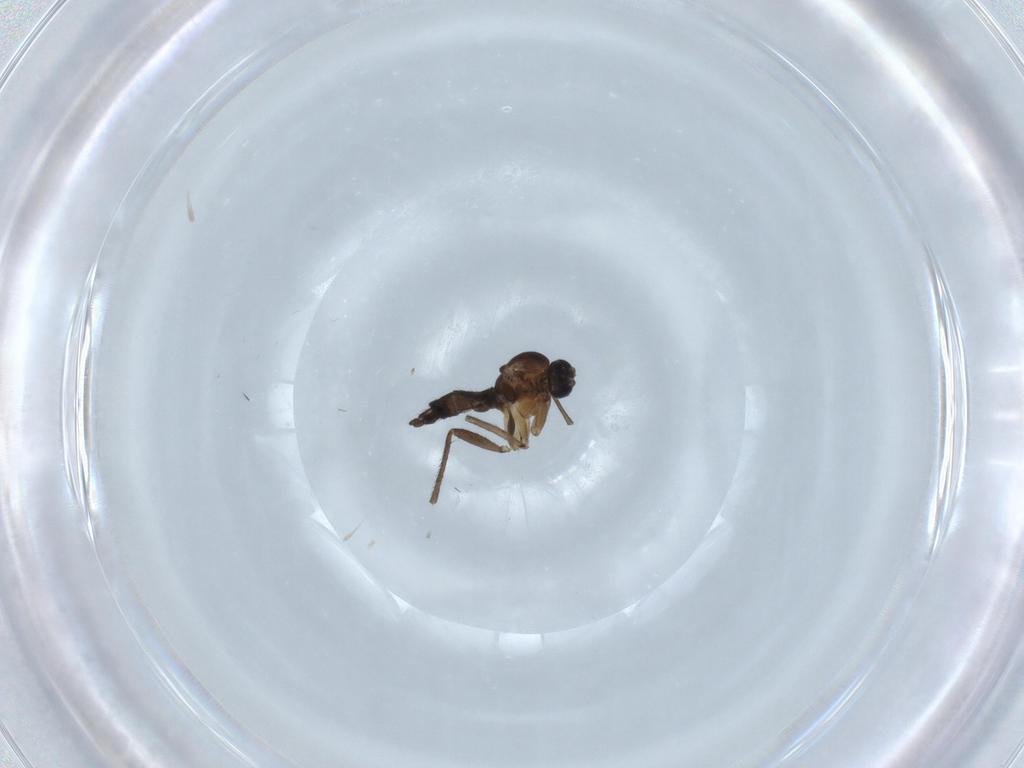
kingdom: Animalia
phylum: Arthropoda
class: Insecta
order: Diptera
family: Sciaridae
